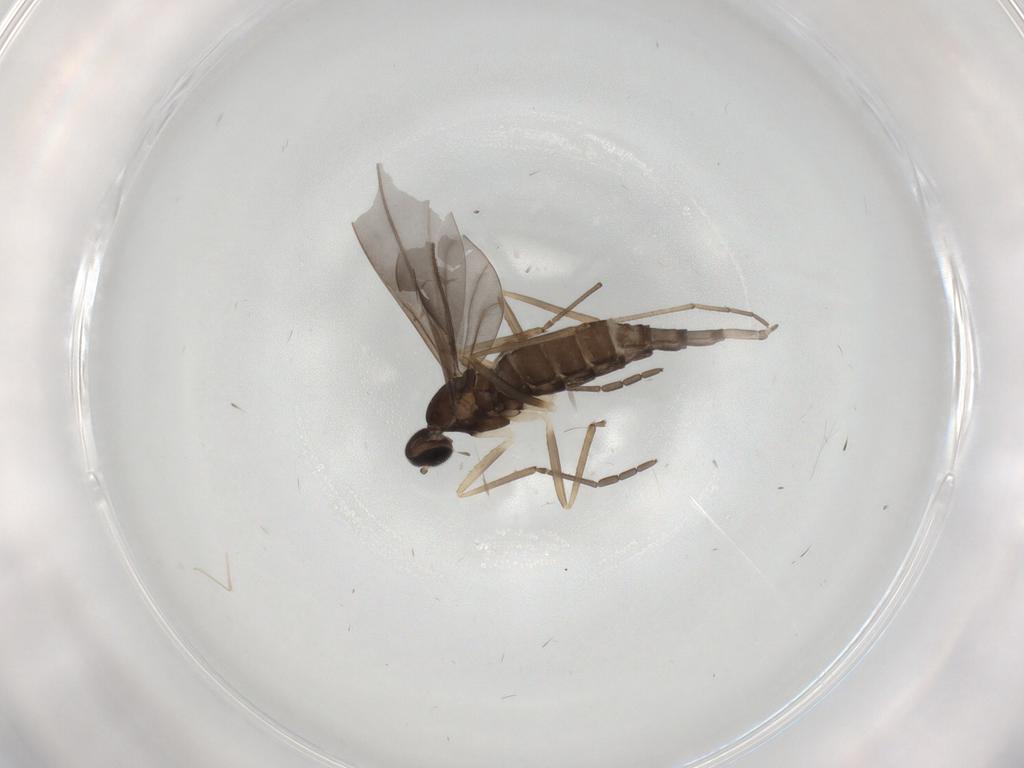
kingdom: Animalia
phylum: Arthropoda
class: Insecta
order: Diptera
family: Cecidomyiidae
